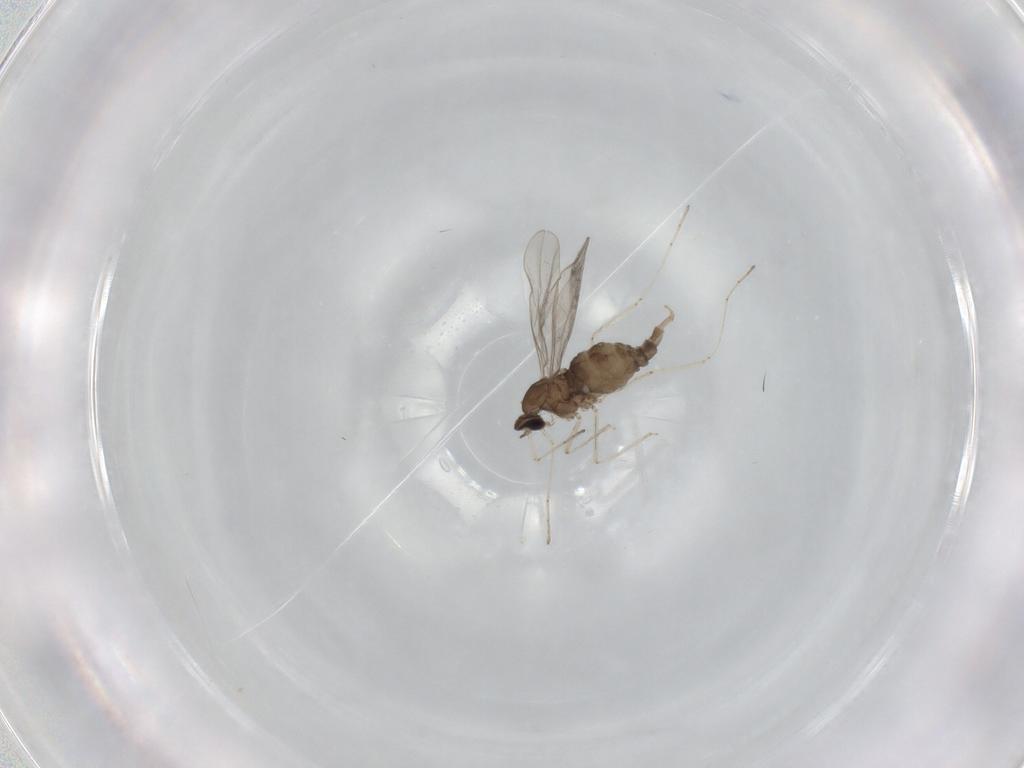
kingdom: Animalia
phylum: Arthropoda
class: Insecta
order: Diptera
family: Cecidomyiidae
